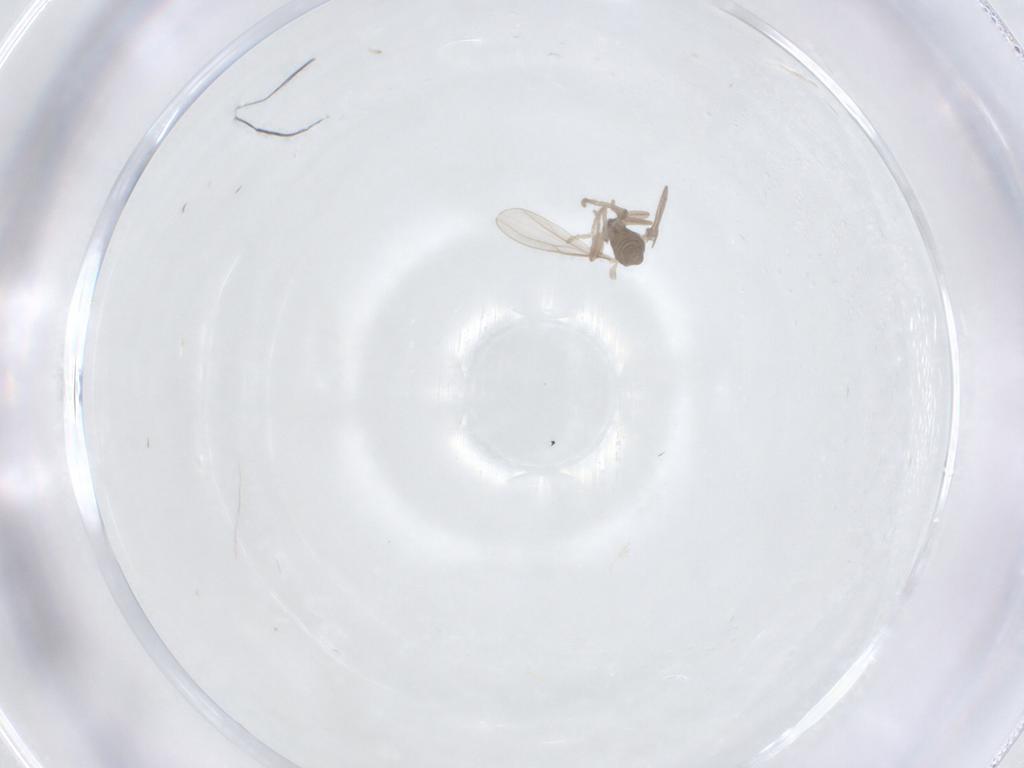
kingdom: Animalia
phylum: Arthropoda
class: Insecta
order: Diptera
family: Cecidomyiidae
